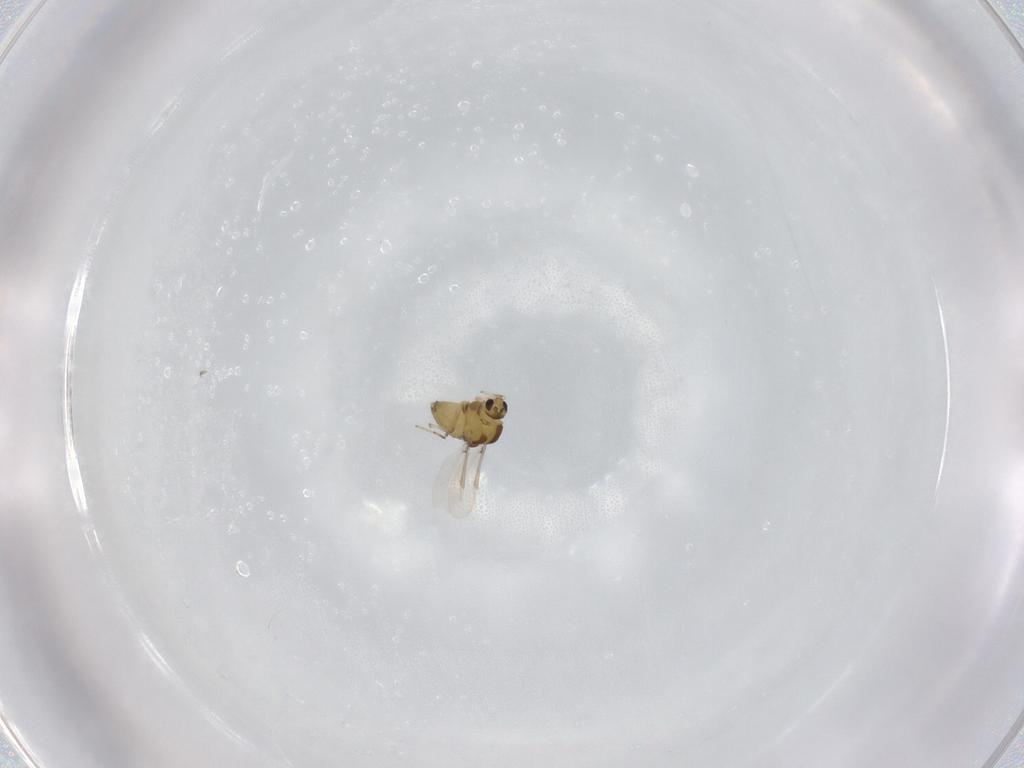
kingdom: Animalia
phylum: Arthropoda
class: Insecta
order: Diptera
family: Chironomidae
